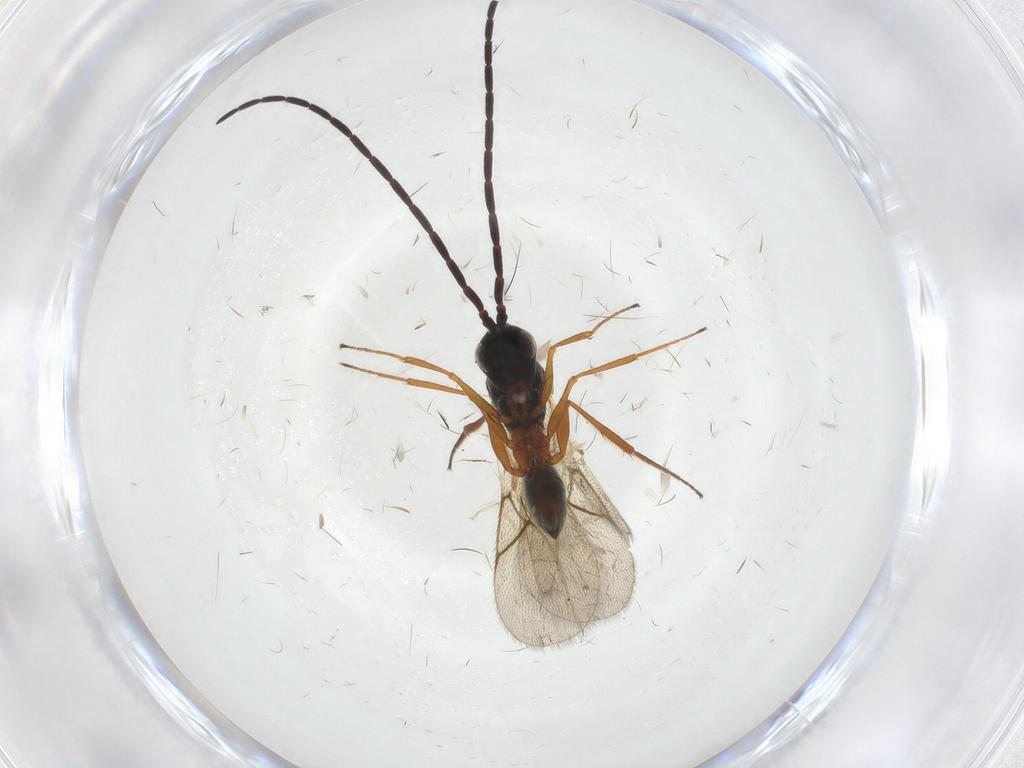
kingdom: Animalia
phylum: Arthropoda
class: Insecta
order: Hymenoptera
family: Figitidae
